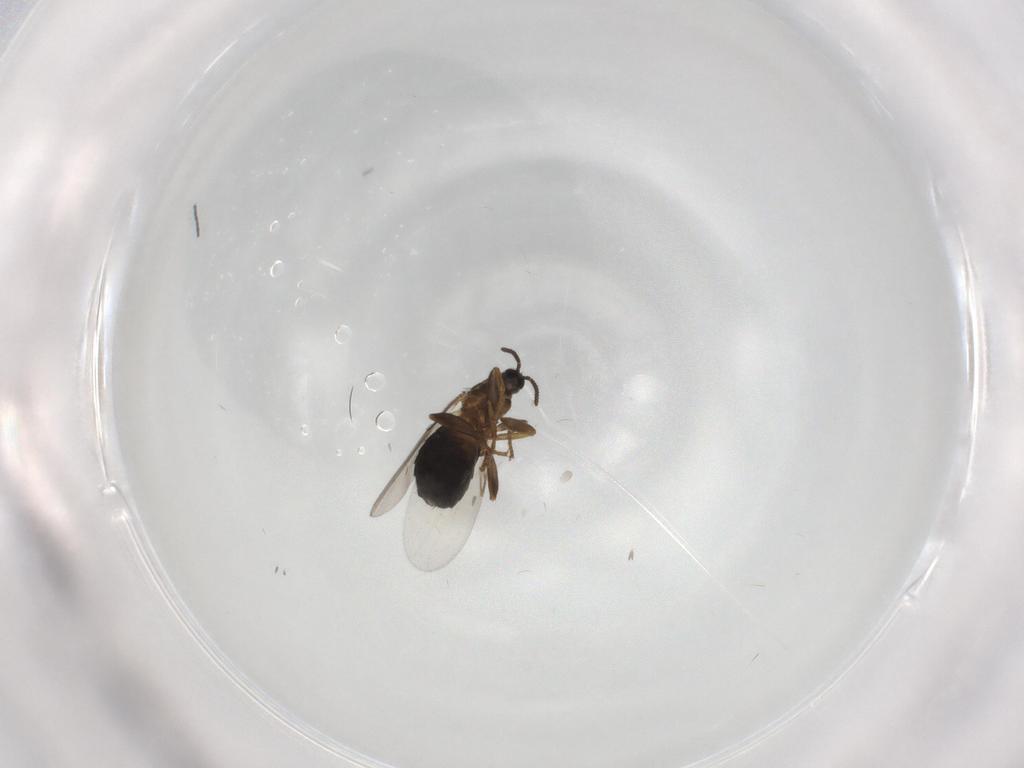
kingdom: Animalia
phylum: Arthropoda
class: Insecta
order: Diptera
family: Scatopsidae
